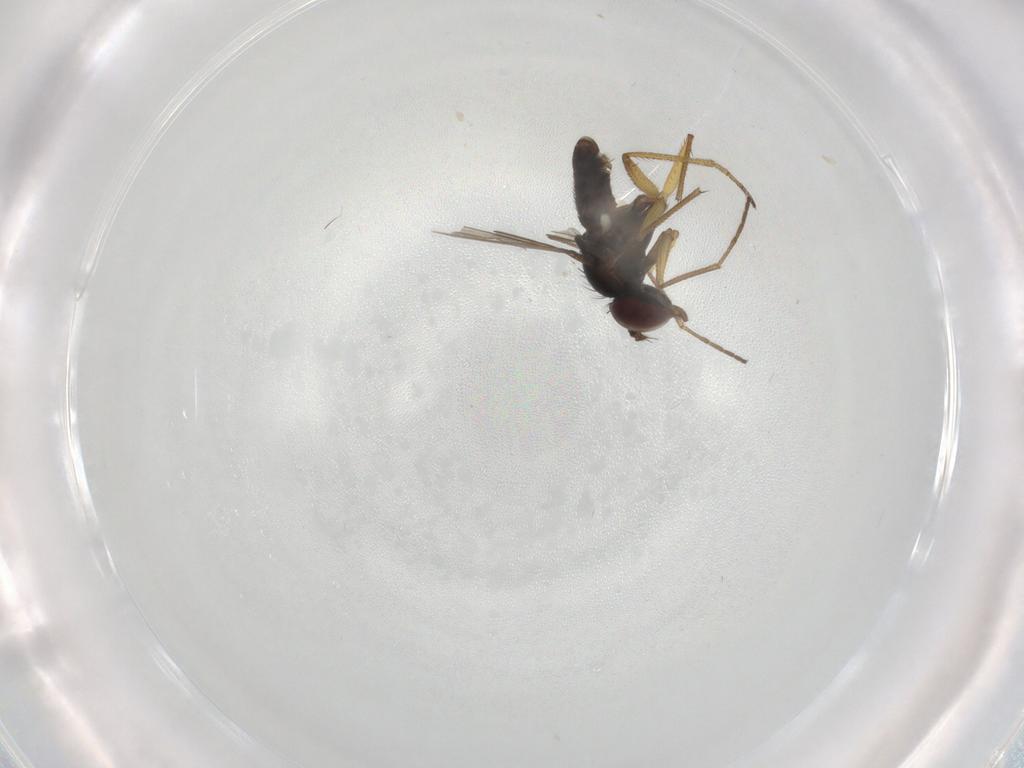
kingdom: Animalia
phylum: Arthropoda
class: Insecta
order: Diptera
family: Dolichopodidae
